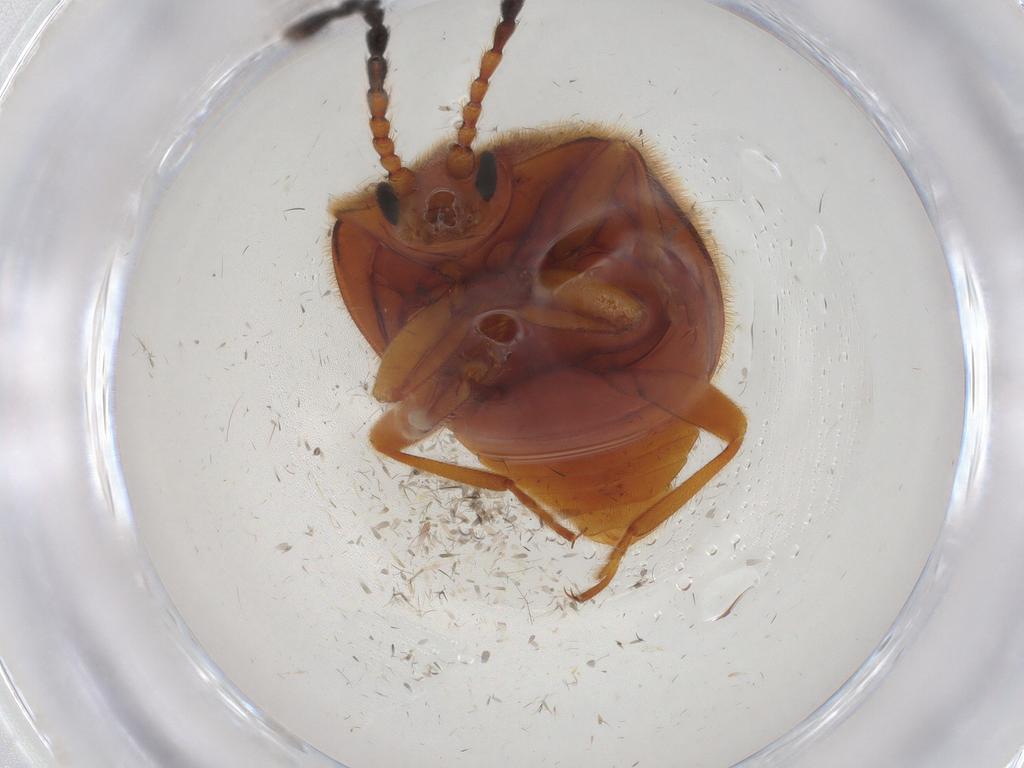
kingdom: Animalia
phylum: Arthropoda
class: Insecta
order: Coleoptera
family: Endomychidae
